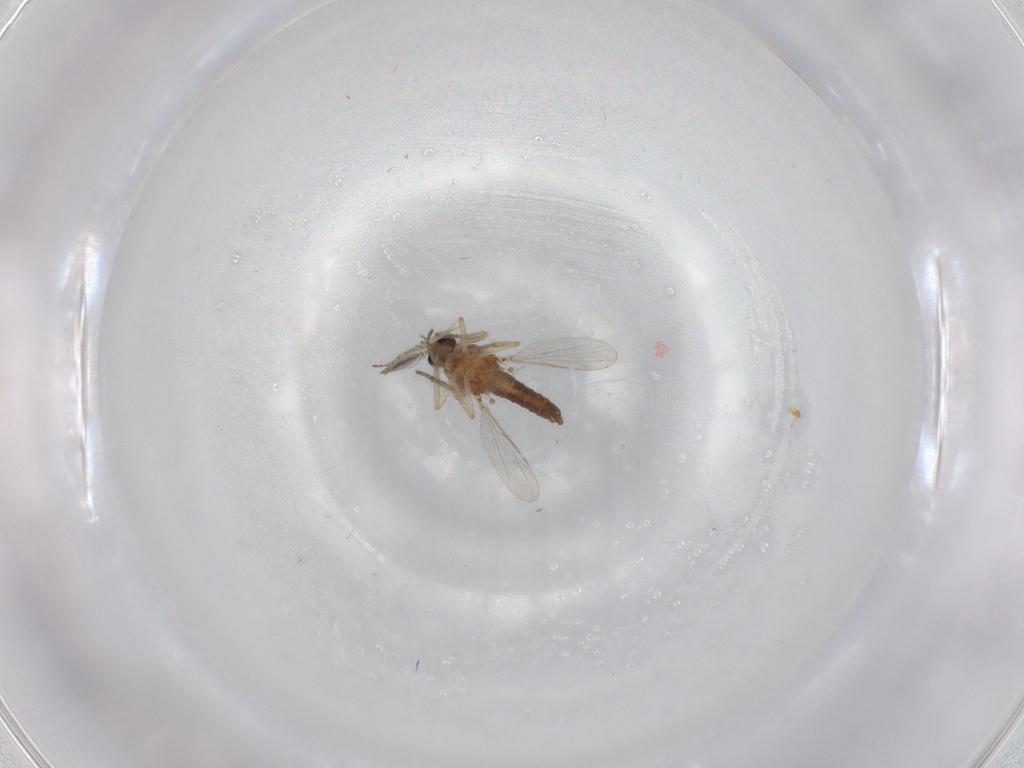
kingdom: Animalia
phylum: Arthropoda
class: Insecta
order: Diptera
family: Ceratopogonidae
